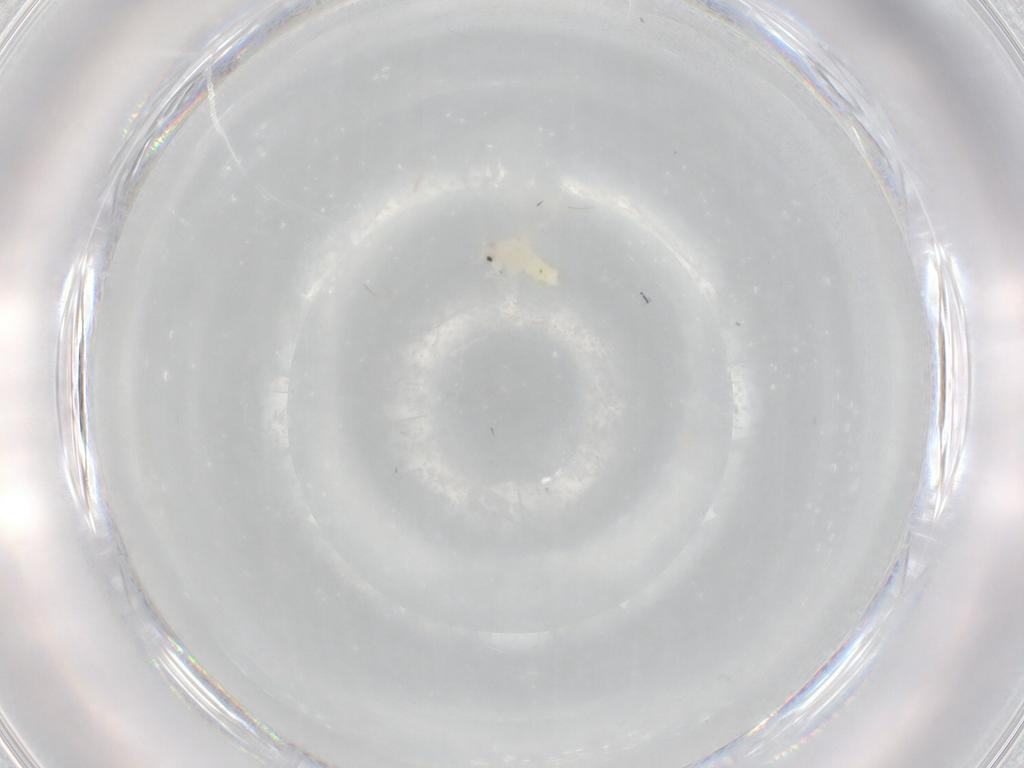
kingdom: Animalia
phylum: Arthropoda
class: Insecta
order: Hemiptera
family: Aleyrodidae
